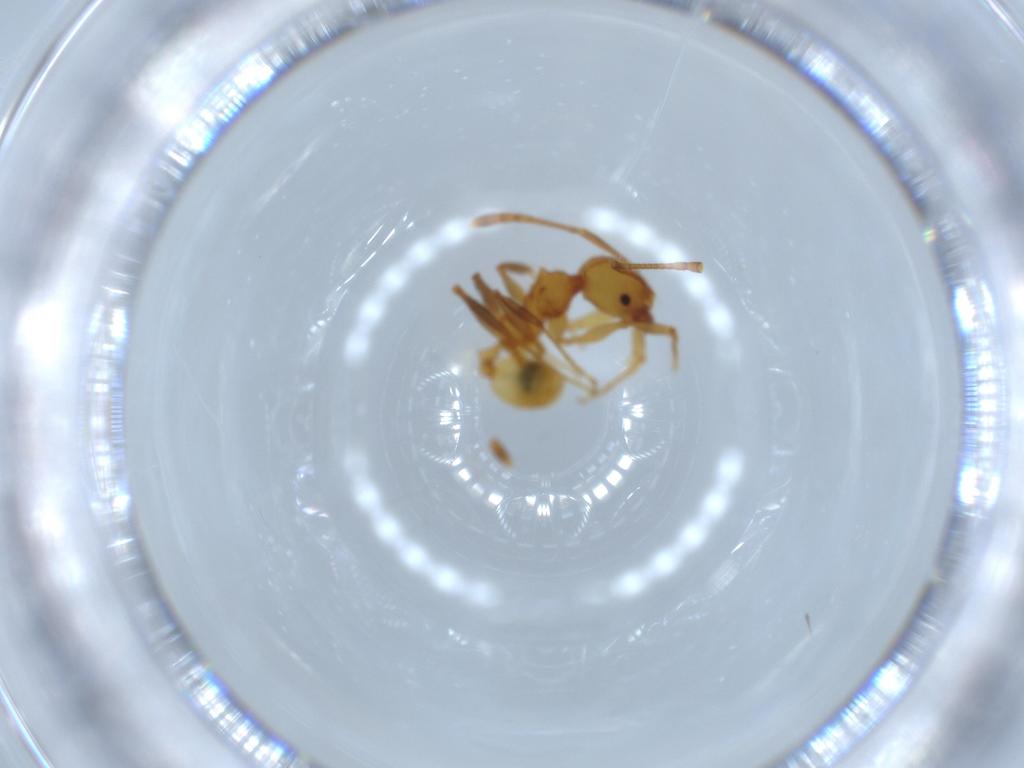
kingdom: Animalia
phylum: Arthropoda
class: Insecta
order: Hymenoptera
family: Formicidae
